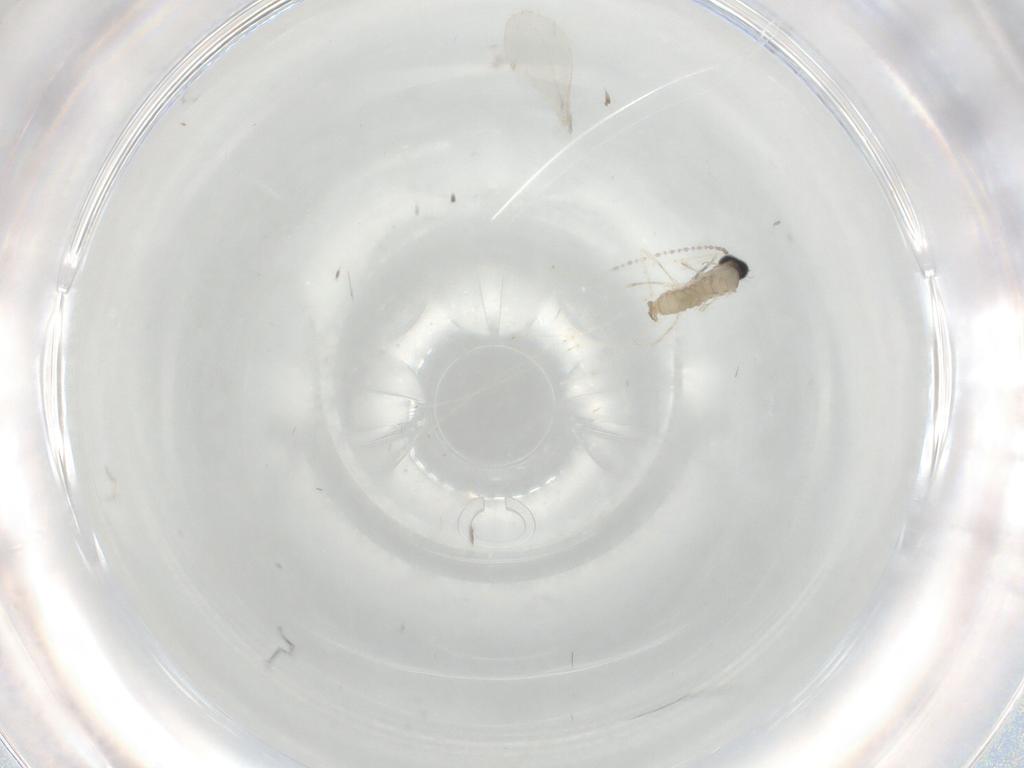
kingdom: Animalia
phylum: Arthropoda
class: Insecta
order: Diptera
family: Cecidomyiidae
